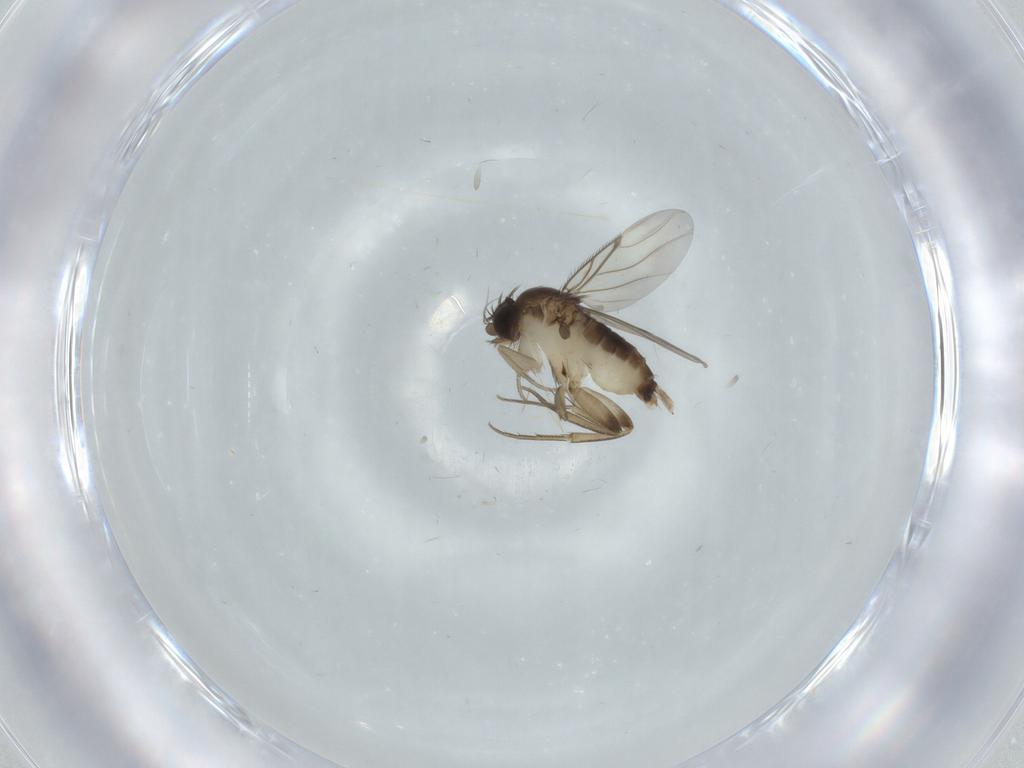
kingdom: Animalia
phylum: Arthropoda
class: Insecta
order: Diptera
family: Phoridae
